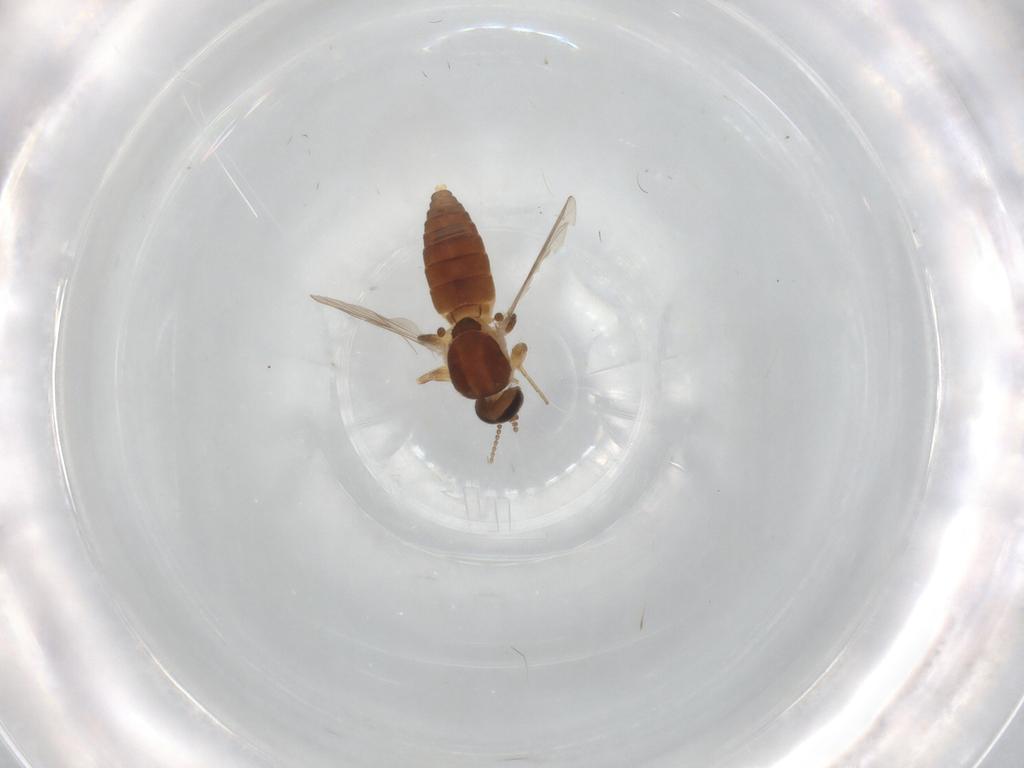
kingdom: Animalia
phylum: Arthropoda
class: Insecta
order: Diptera
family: Ceratopogonidae
